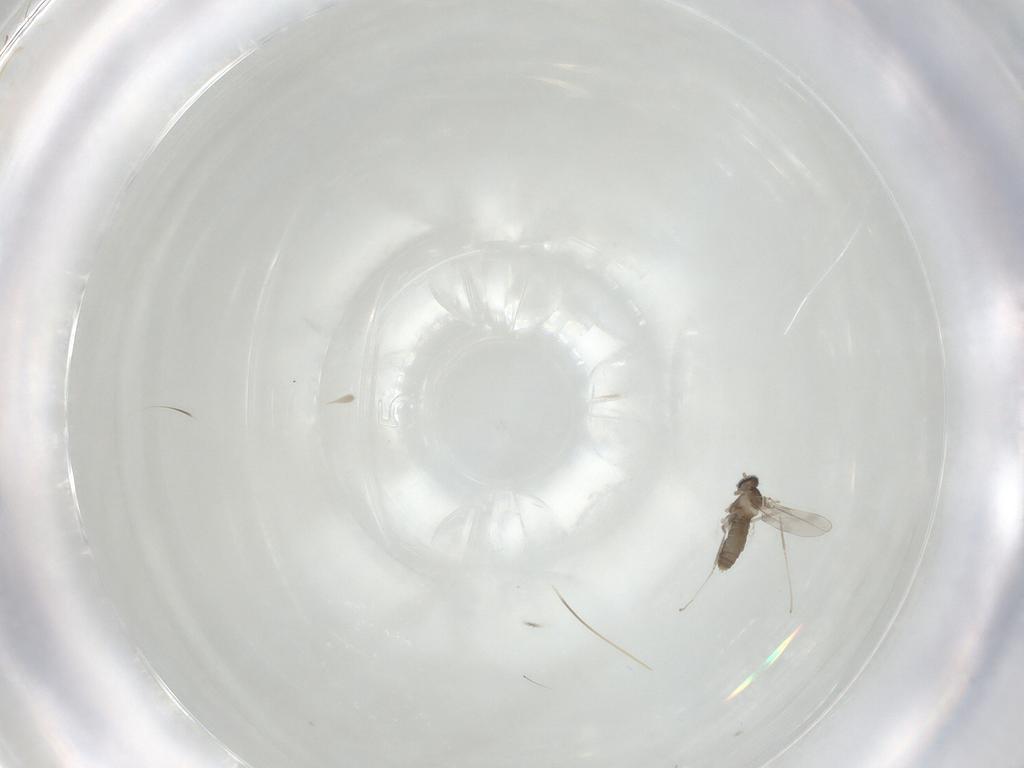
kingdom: Animalia
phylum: Arthropoda
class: Insecta
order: Diptera
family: Cecidomyiidae
